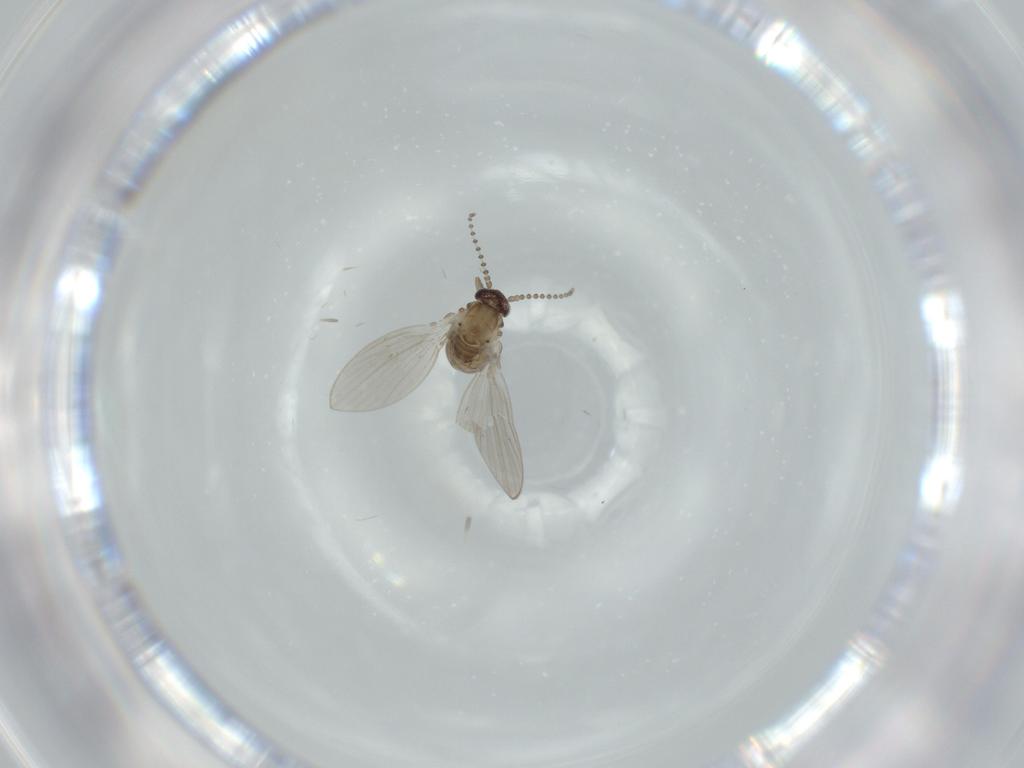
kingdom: Animalia
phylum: Arthropoda
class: Insecta
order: Diptera
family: Psychodidae
